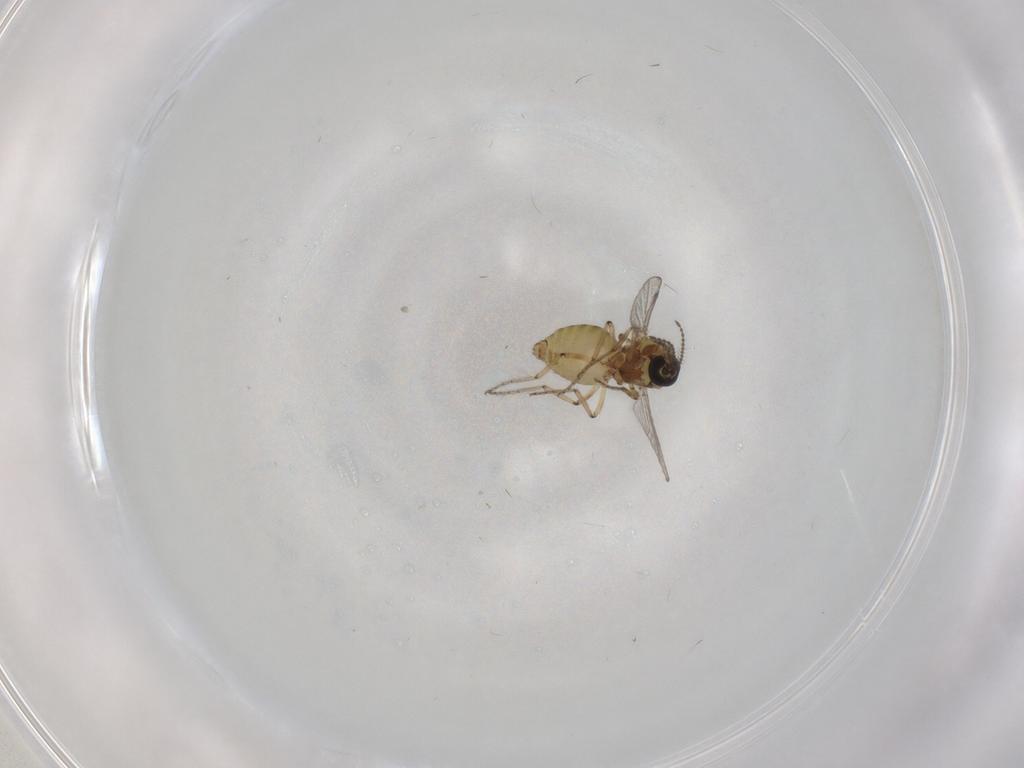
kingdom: Animalia
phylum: Arthropoda
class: Insecta
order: Diptera
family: Ceratopogonidae
